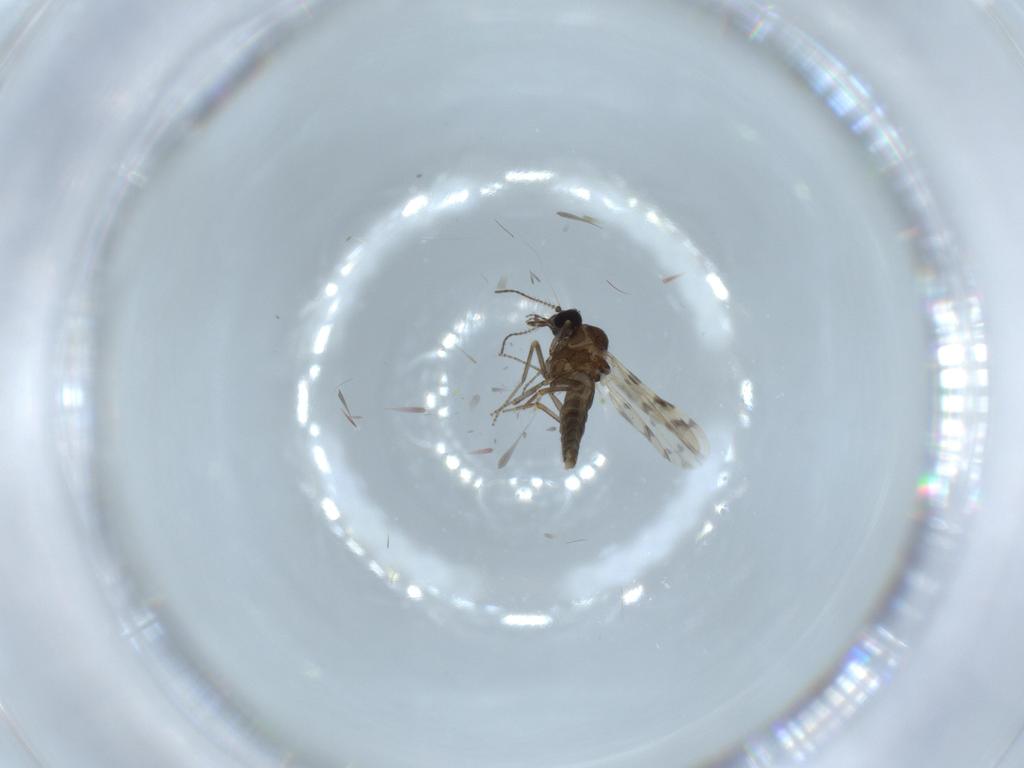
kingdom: Animalia
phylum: Arthropoda
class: Insecta
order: Diptera
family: Ceratopogonidae
